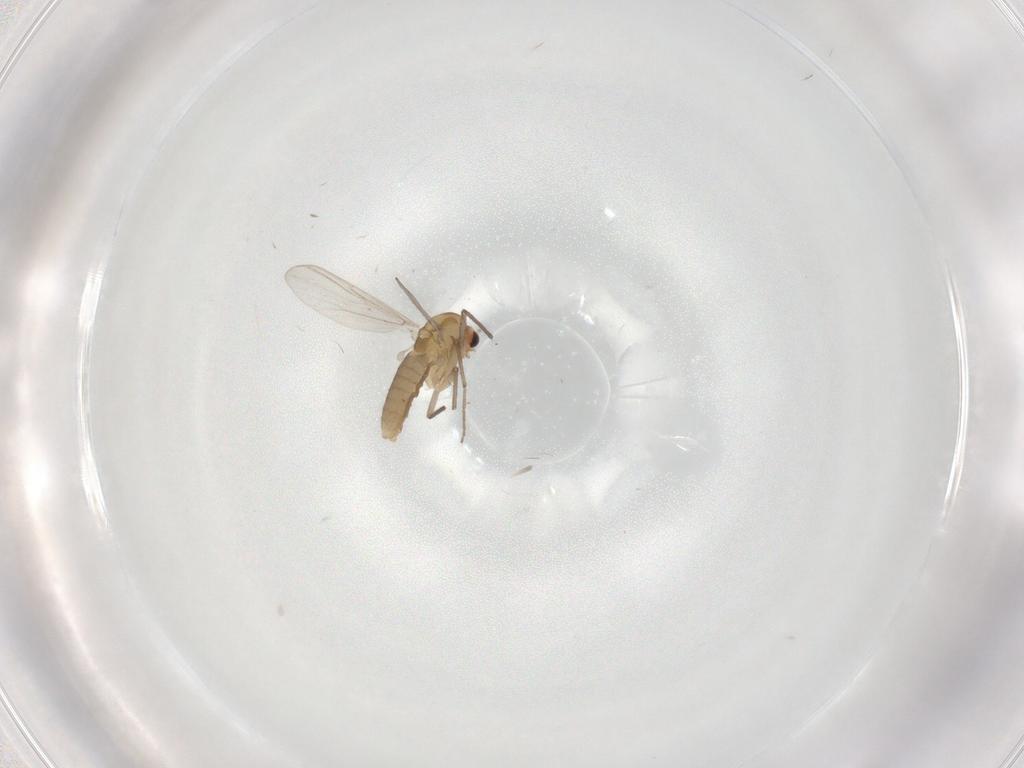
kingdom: Animalia
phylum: Arthropoda
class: Insecta
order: Diptera
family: Chironomidae
